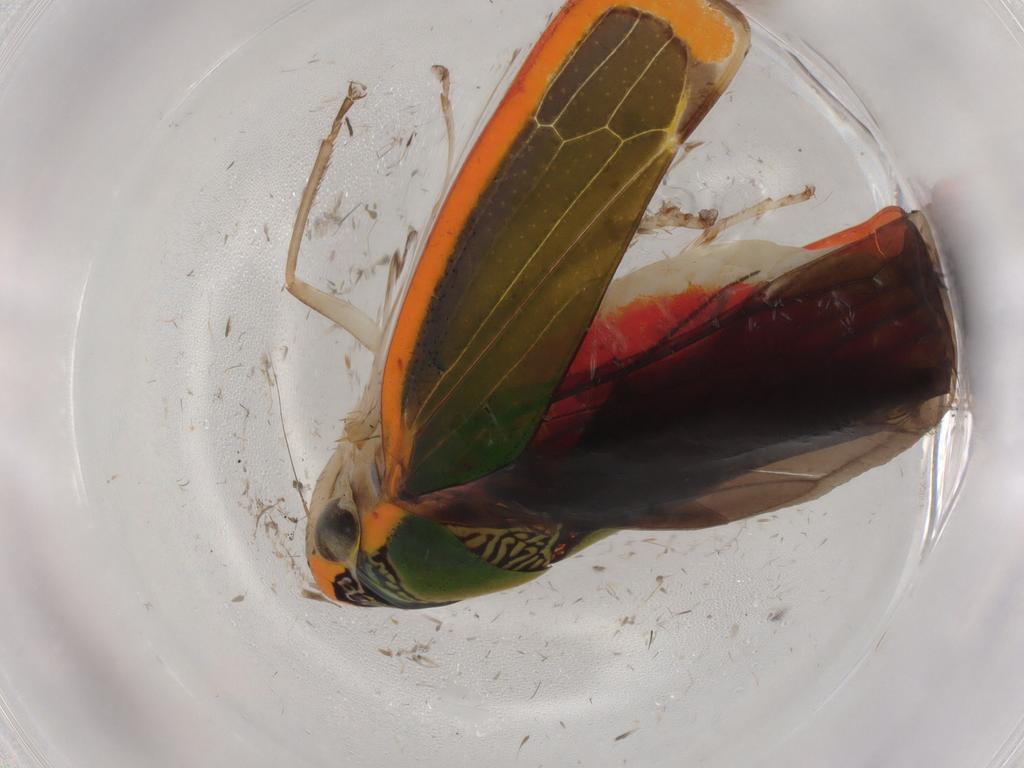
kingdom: Animalia
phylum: Arthropoda
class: Insecta
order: Hemiptera
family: Cicadellidae
